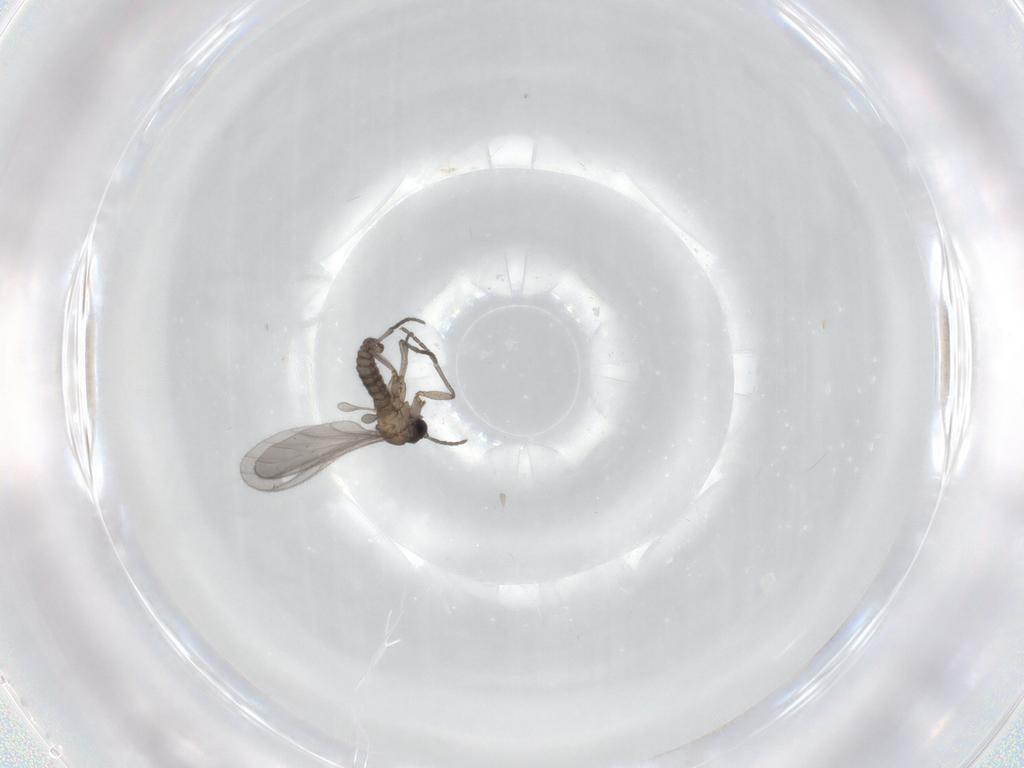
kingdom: Animalia
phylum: Arthropoda
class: Insecta
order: Diptera
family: Sciaridae
